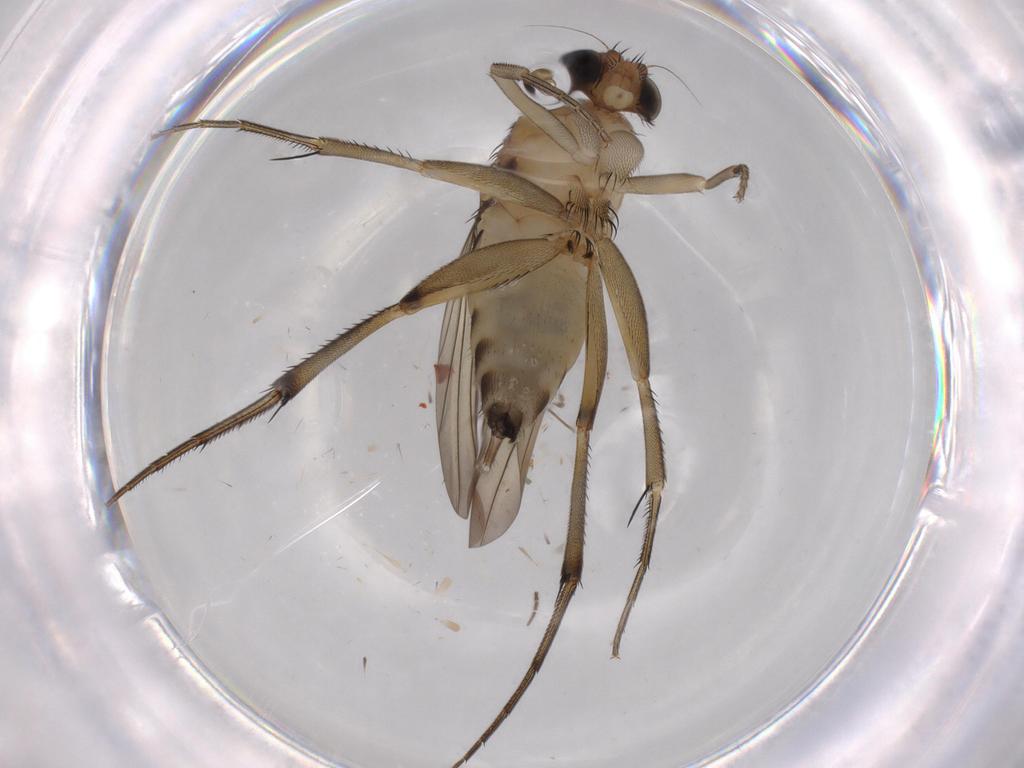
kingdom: Animalia
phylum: Arthropoda
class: Insecta
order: Diptera
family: Phoridae
